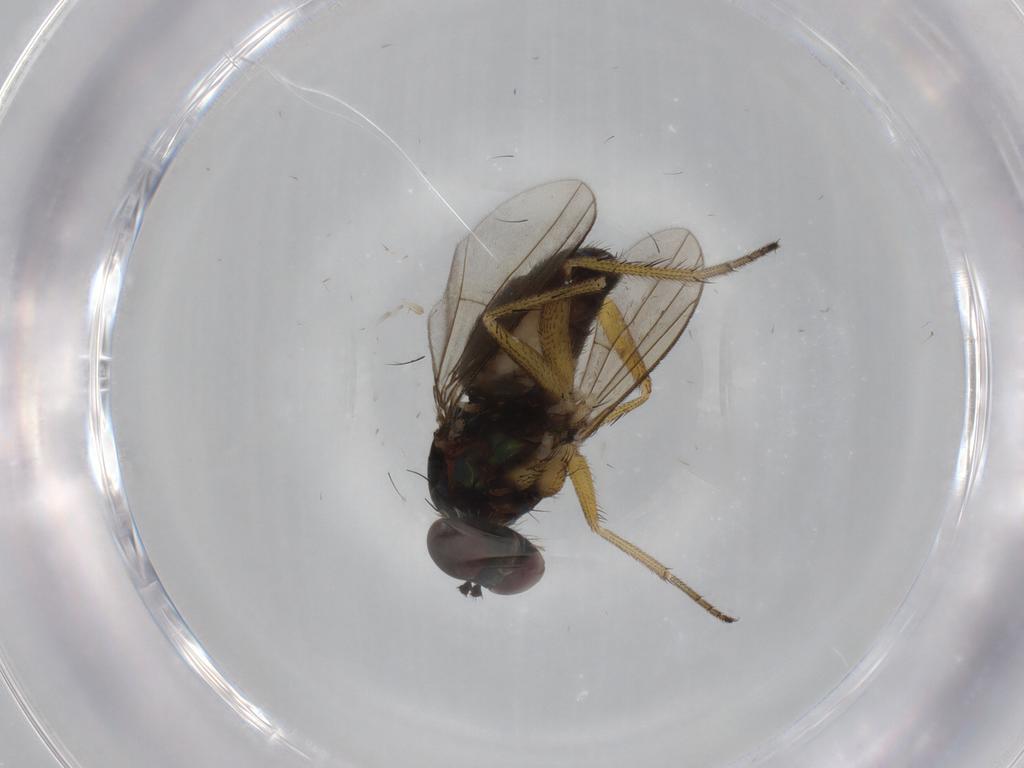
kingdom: Animalia
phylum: Arthropoda
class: Insecta
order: Diptera
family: Dolichopodidae
